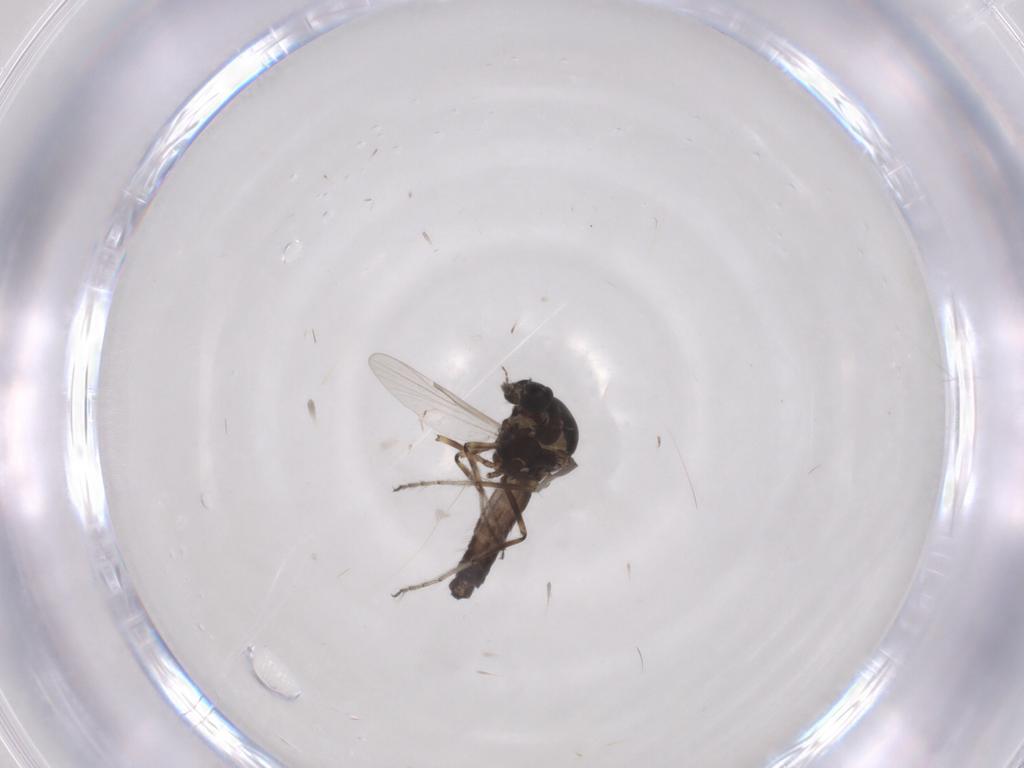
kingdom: Animalia
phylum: Arthropoda
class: Insecta
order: Diptera
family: Ceratopogonidae
